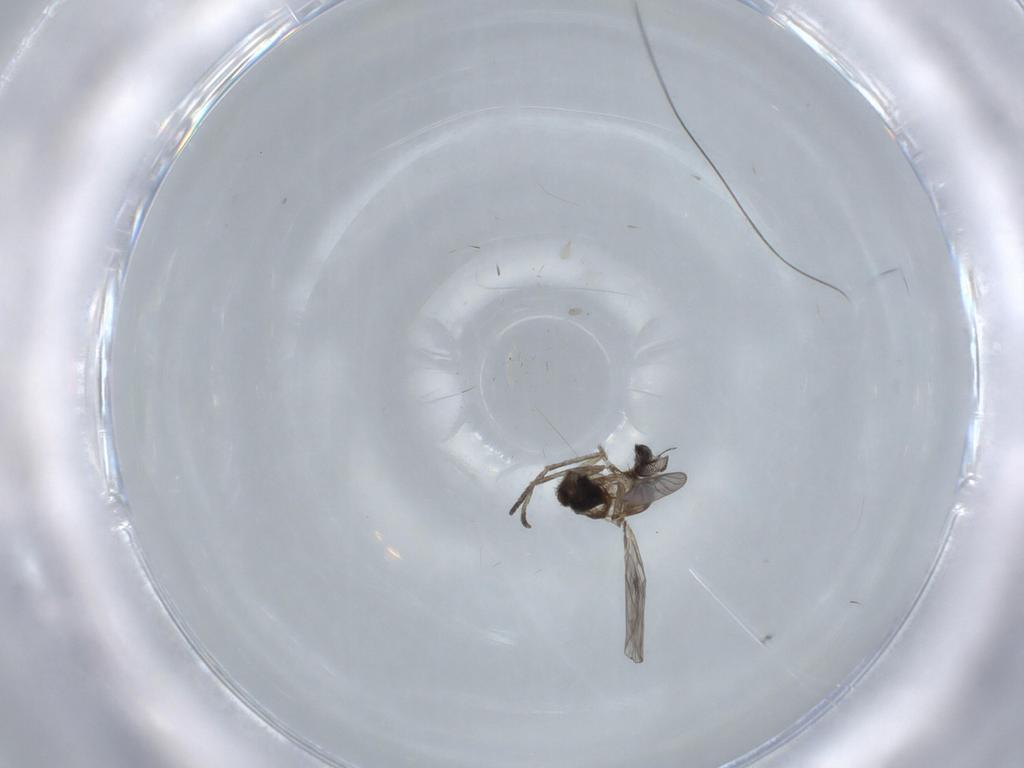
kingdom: Animalia
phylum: Arthropoda
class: Insecta
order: Diptera
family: Psychodidae
